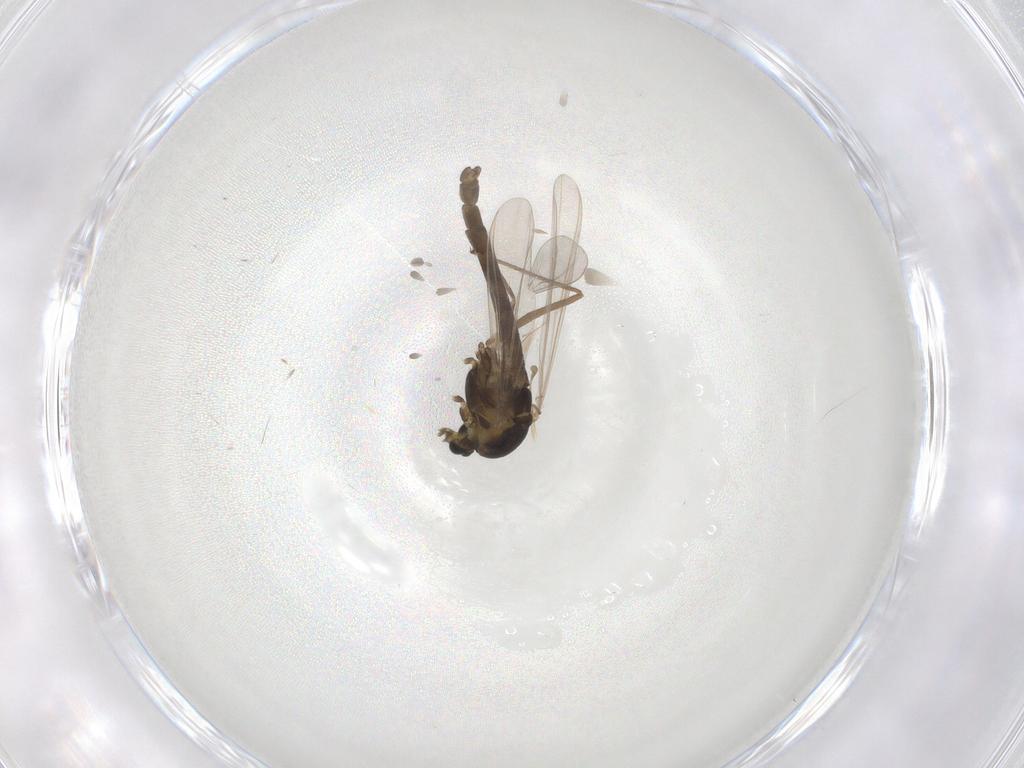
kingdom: Animalia
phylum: Arthropoda
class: Insecta
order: Diptera
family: Chironomidae
